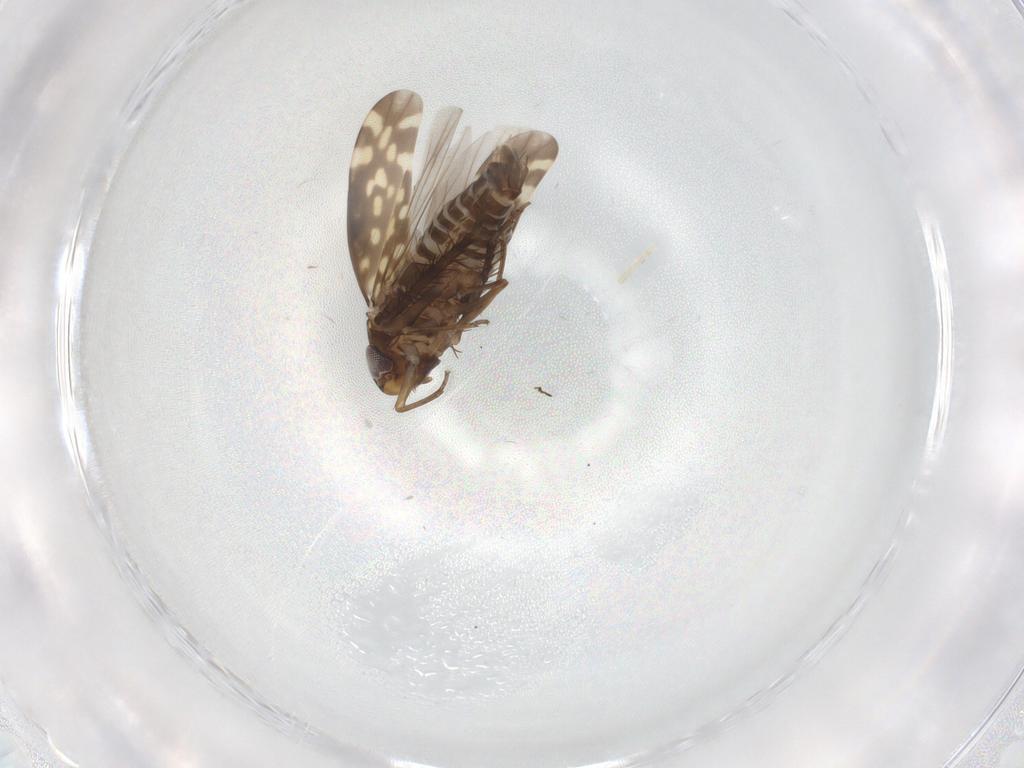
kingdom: Animalia
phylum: Arthropoda
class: Insecta
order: Hemiptera
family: Cicadellidae
